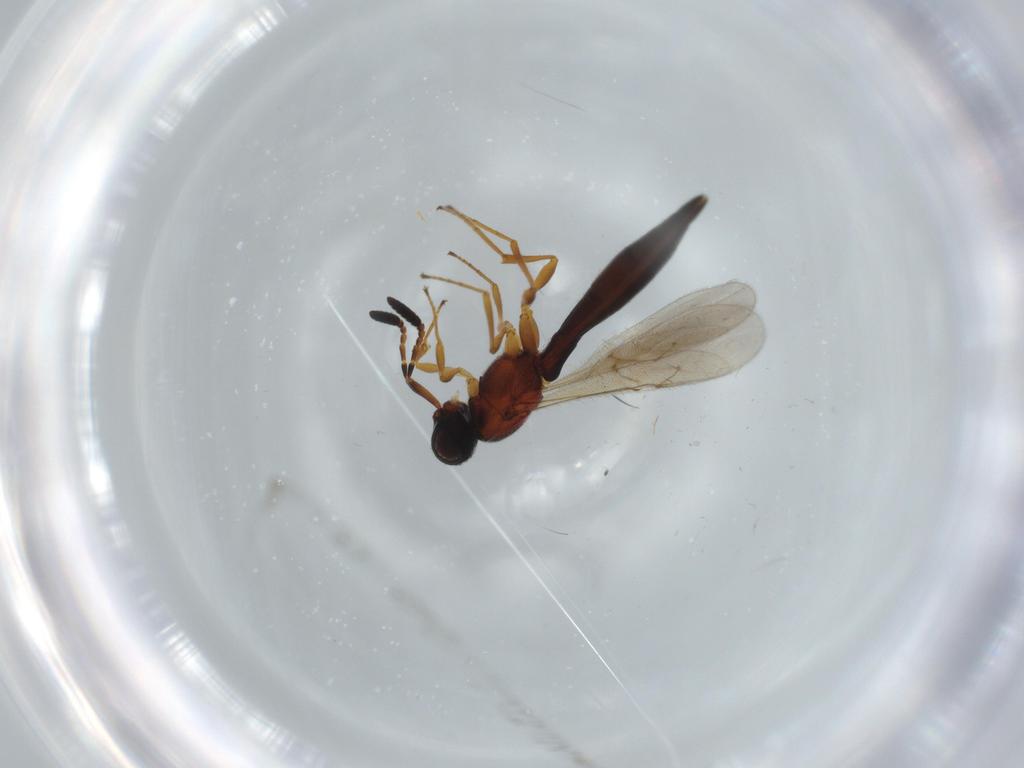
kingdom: Animalia
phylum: Arthropoda
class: Insecta
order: Hymenoptera
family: Scelionidae
